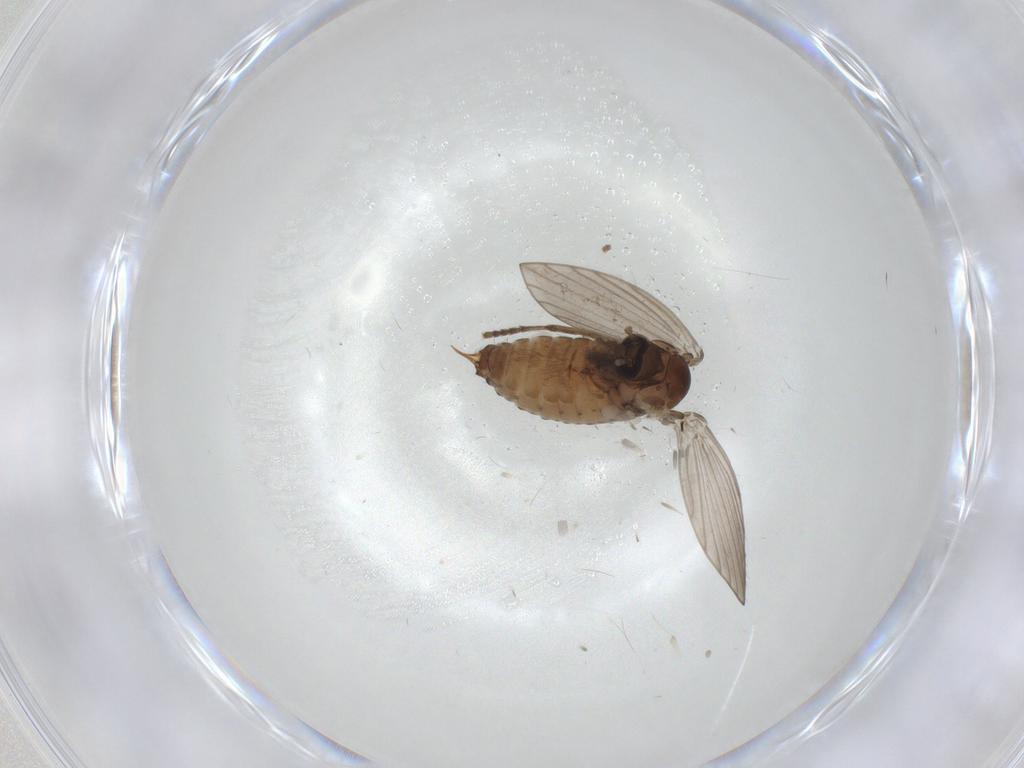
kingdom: Animalia
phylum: Arthropoda
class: Insecta
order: Diptera
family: Psychodidae
